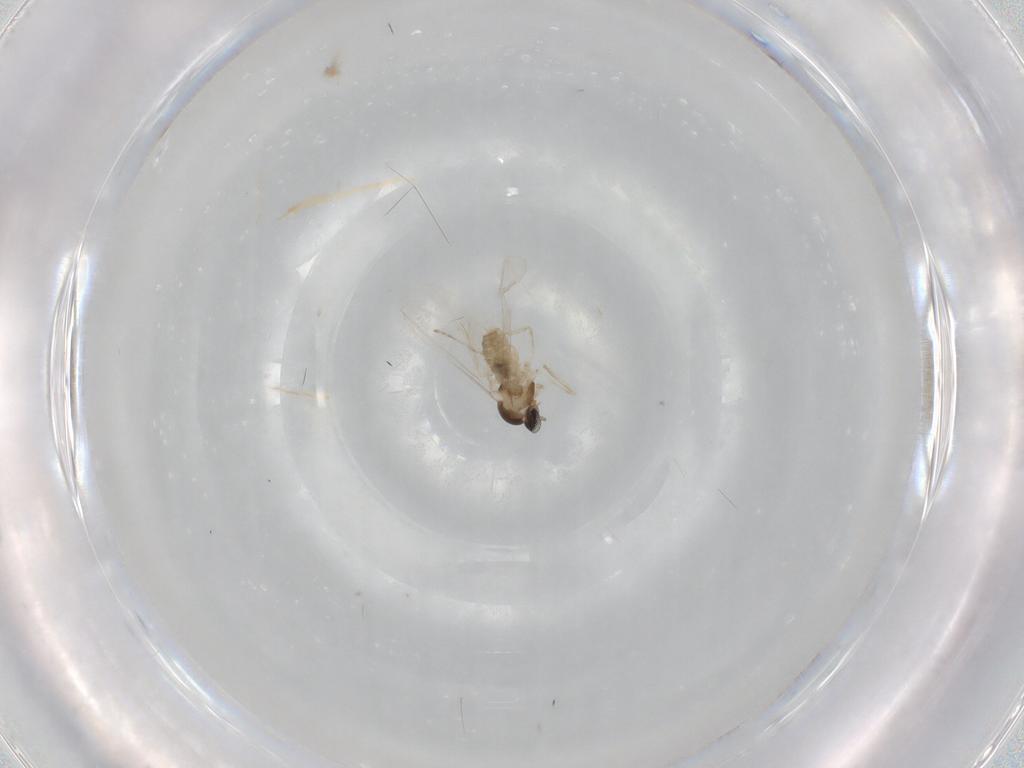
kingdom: Animalia
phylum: Arthropoda
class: Insecta
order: Diptera
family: Cecidomyiidae
